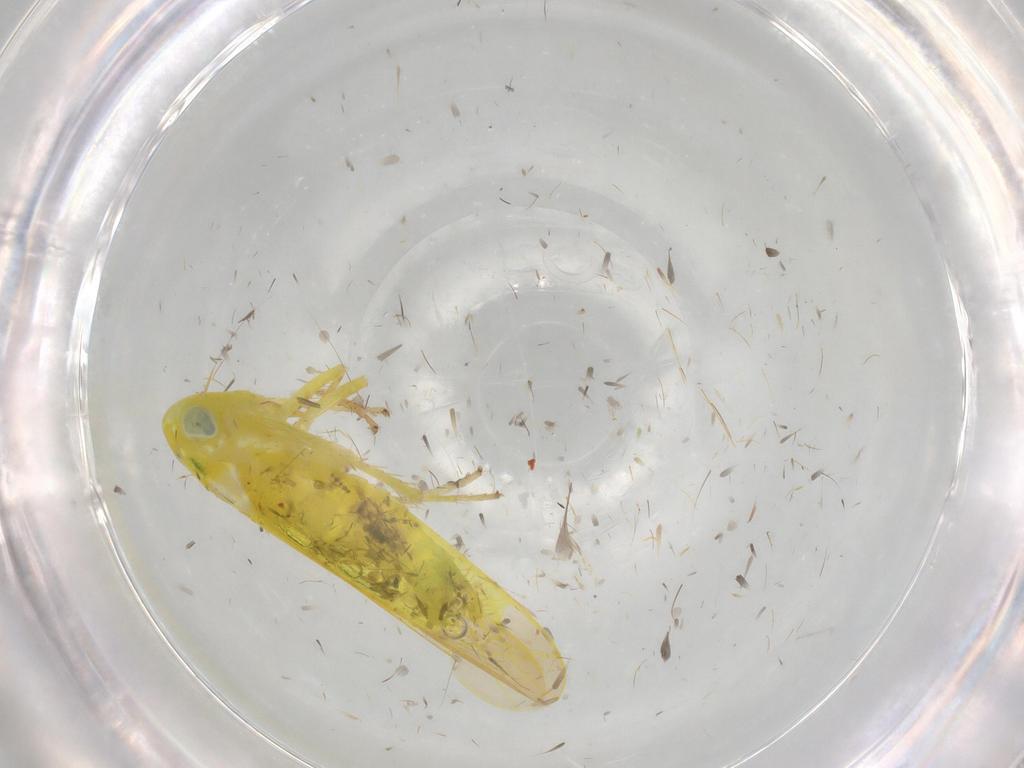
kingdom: Animalia
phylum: Arthropoda
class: Insecta
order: Hemiptera
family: Cicadellidae
